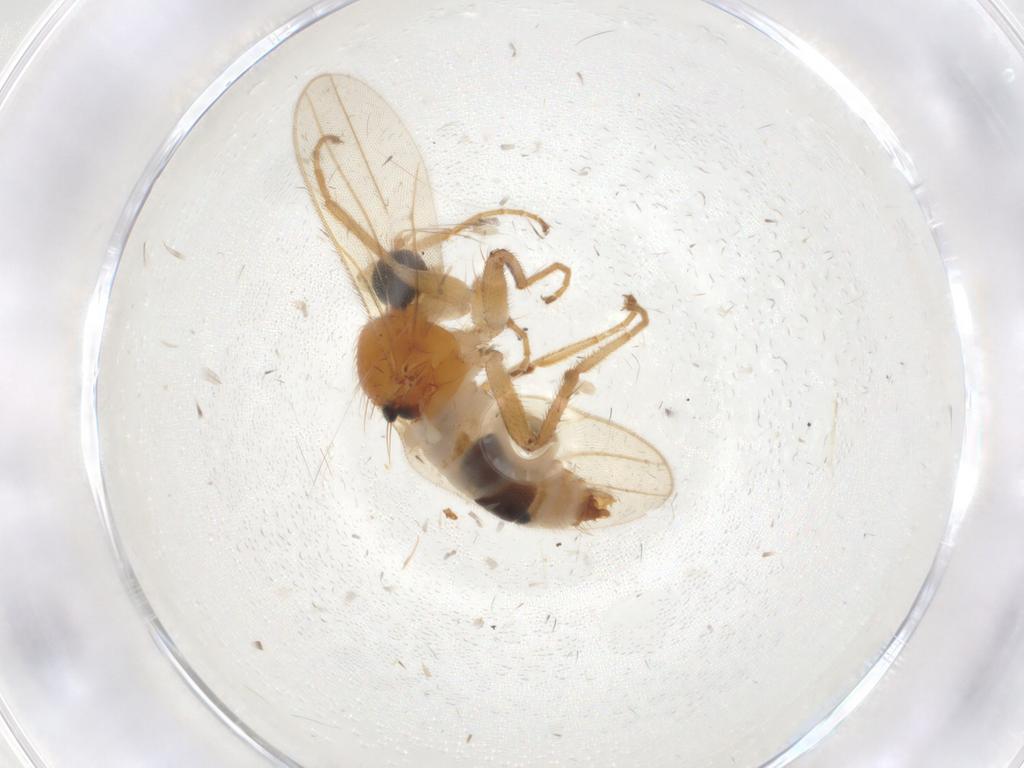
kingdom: Animalia
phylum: Arthropoda
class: Insecta
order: Diptera
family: Hybotidae
